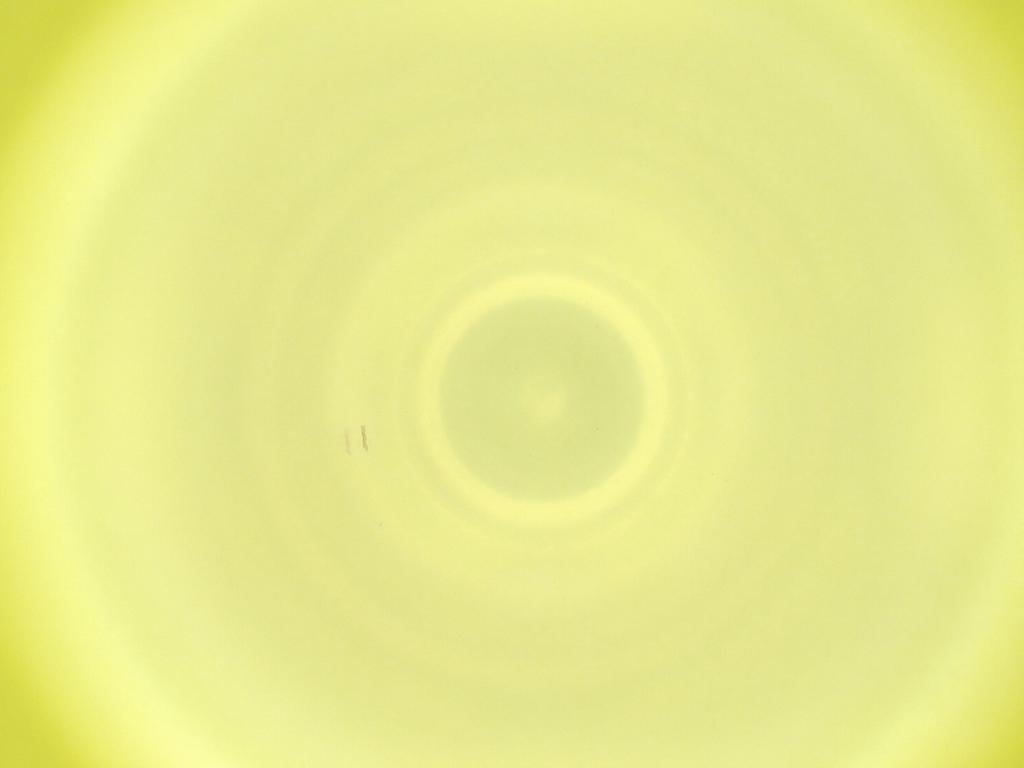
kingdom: Animalia
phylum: Arthropoda
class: Insecta
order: Diptera
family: Cecidomyiidae
